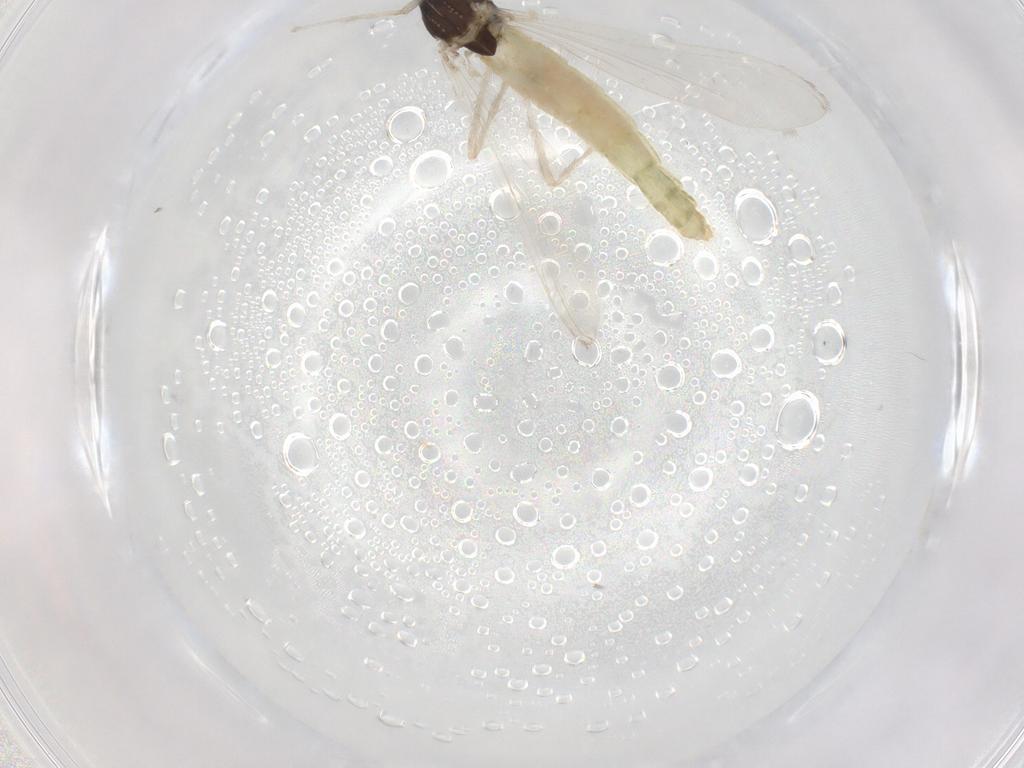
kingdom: Animalia
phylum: Arthropoda
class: Insecta
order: Diptera
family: Chironomidae
